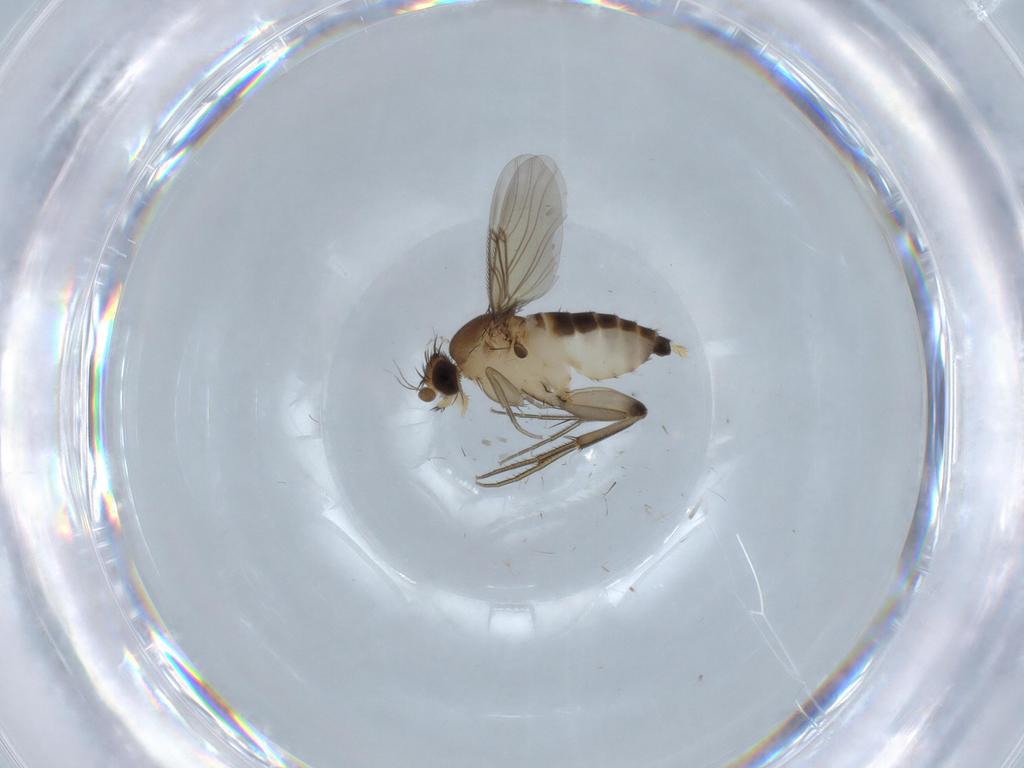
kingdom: Animalia
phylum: Arthropoda
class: Insecta
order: Diptera
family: Phoridae
